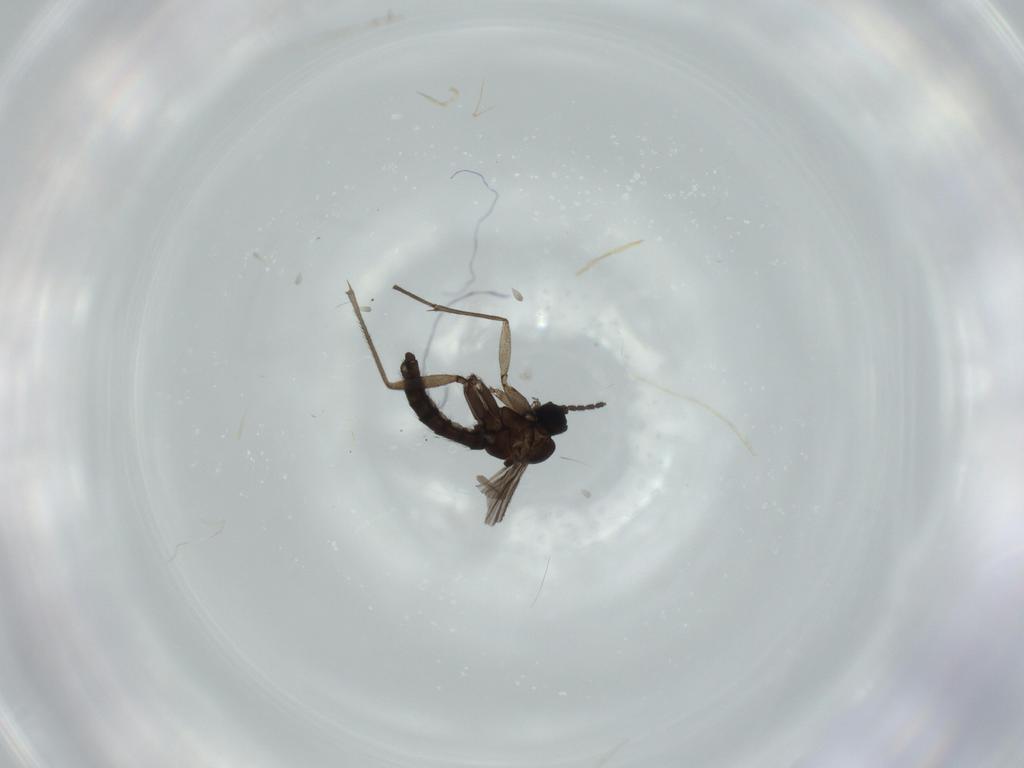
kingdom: Animalia
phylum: Arthropoda
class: Insecta
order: Diptera
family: Sciaridae
